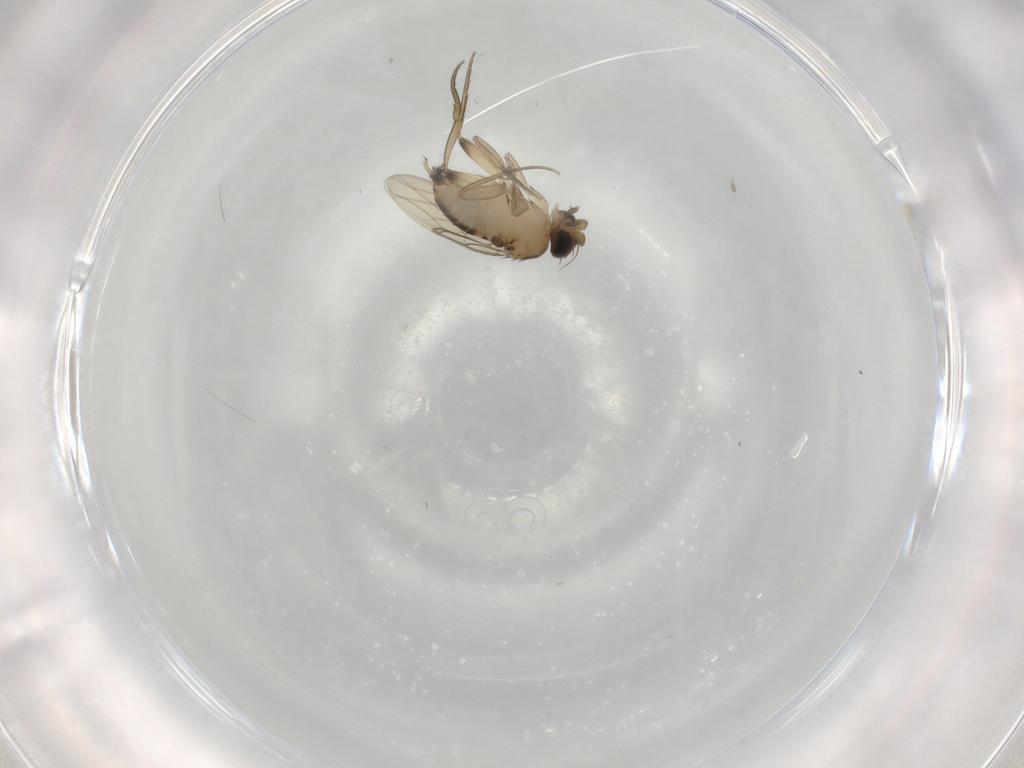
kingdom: Animalia
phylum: Arthropoda
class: Insecta
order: Diptera
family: Phoridae
